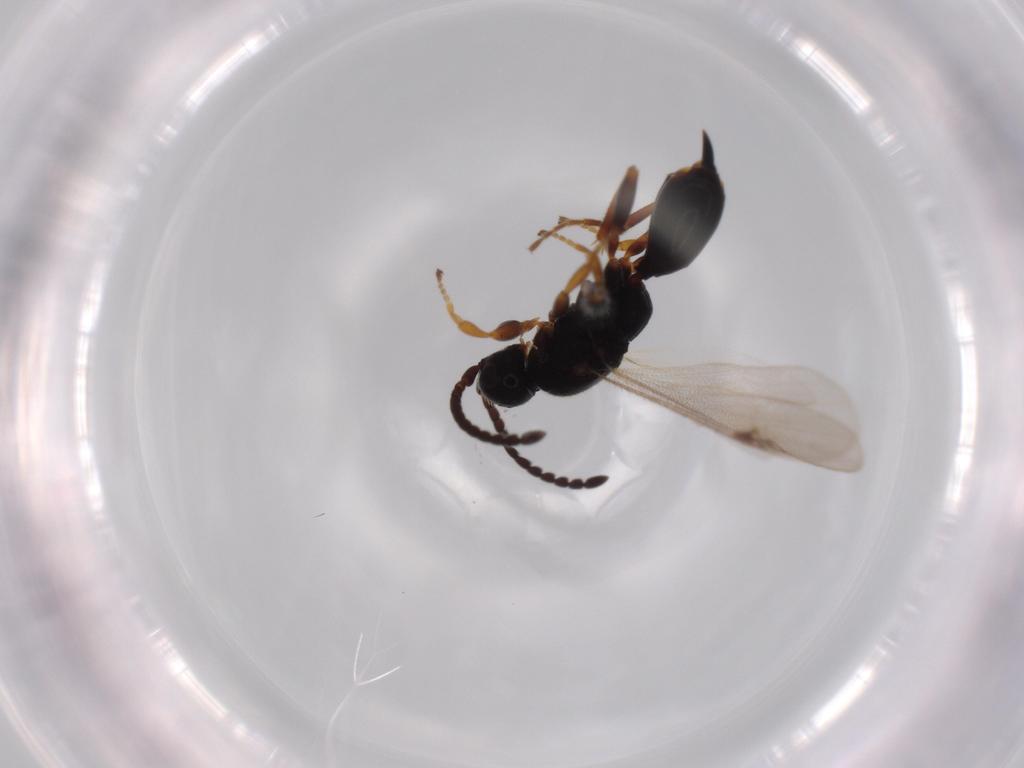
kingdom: Animalia
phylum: Arthropoda
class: Insecta
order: Hymenoptera
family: Proctotrupidae
